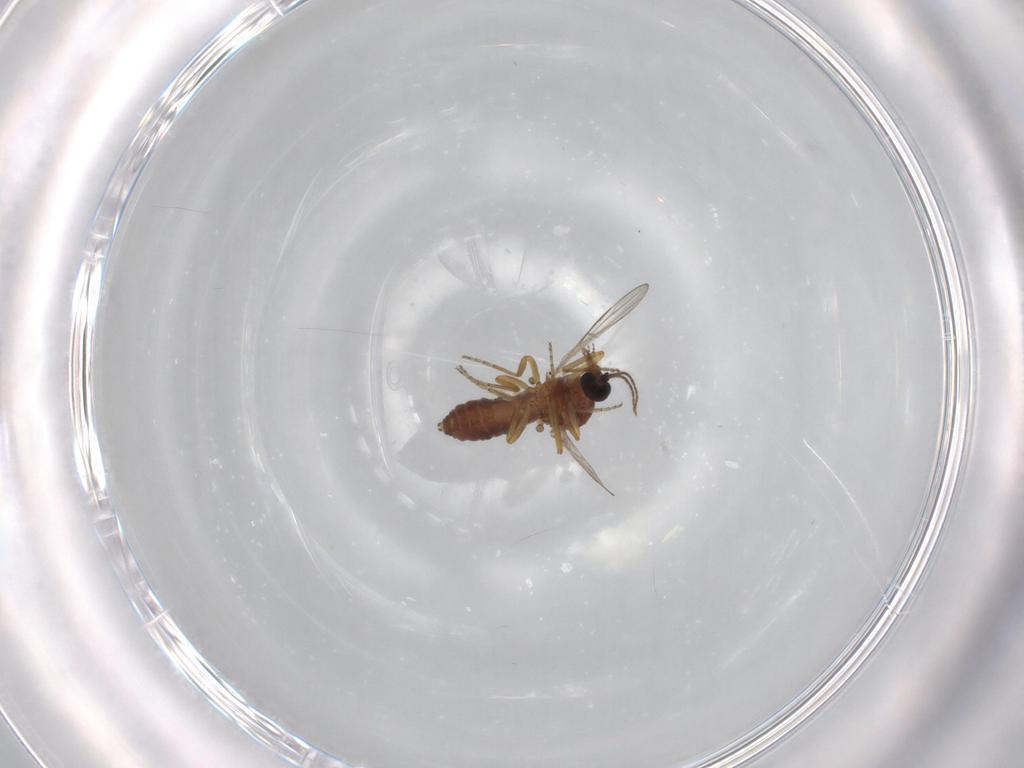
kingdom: Animalia
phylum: Arthropoda
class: Insecta
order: Diptera
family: Ceratopogonidae
